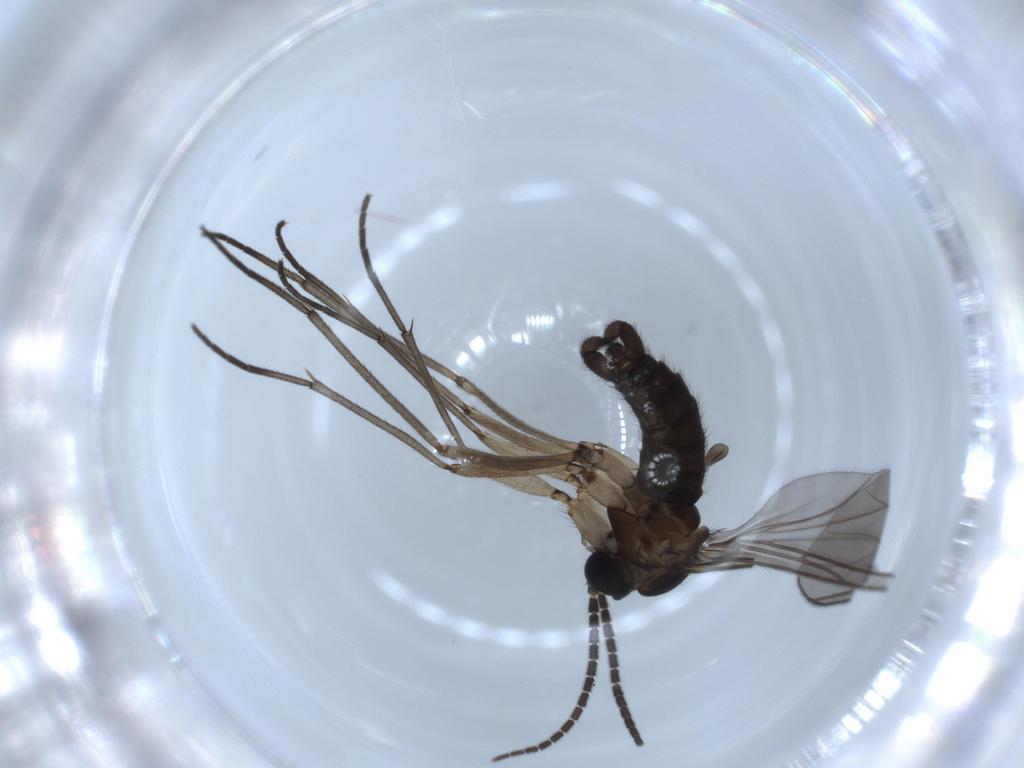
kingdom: Animalia
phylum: Arthropoda
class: Insecta
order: Diptera
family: Sciaridae
